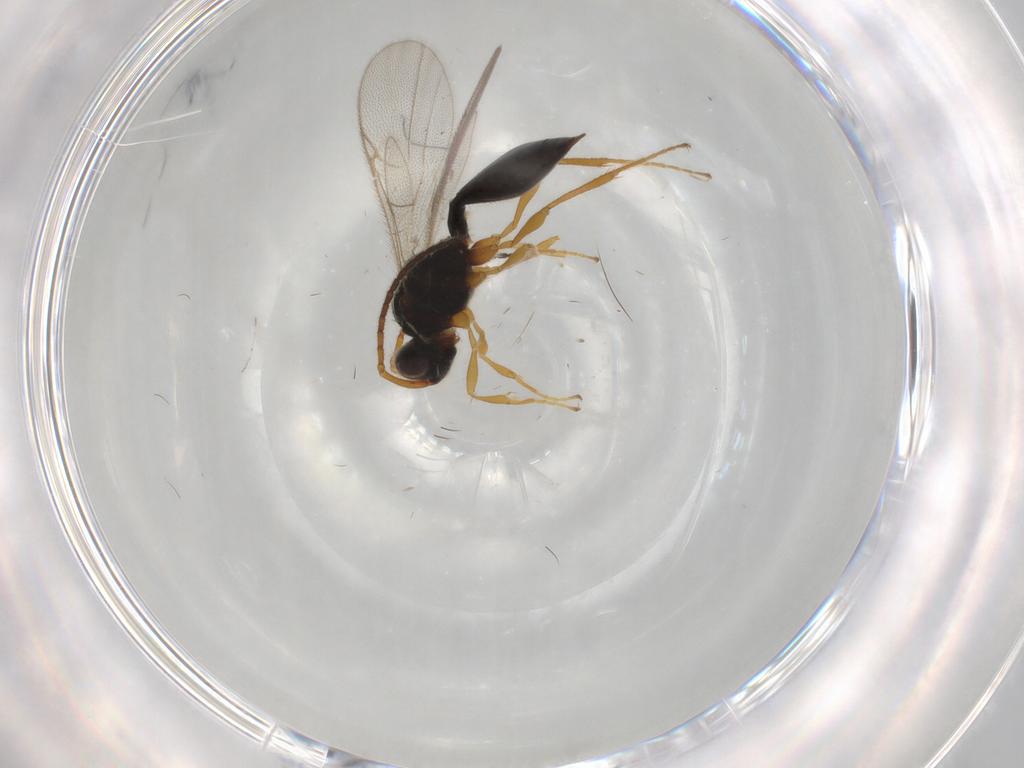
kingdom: Animalia
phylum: Arthropoda
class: Insecta
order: Hymenoptera
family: Diapriidae
